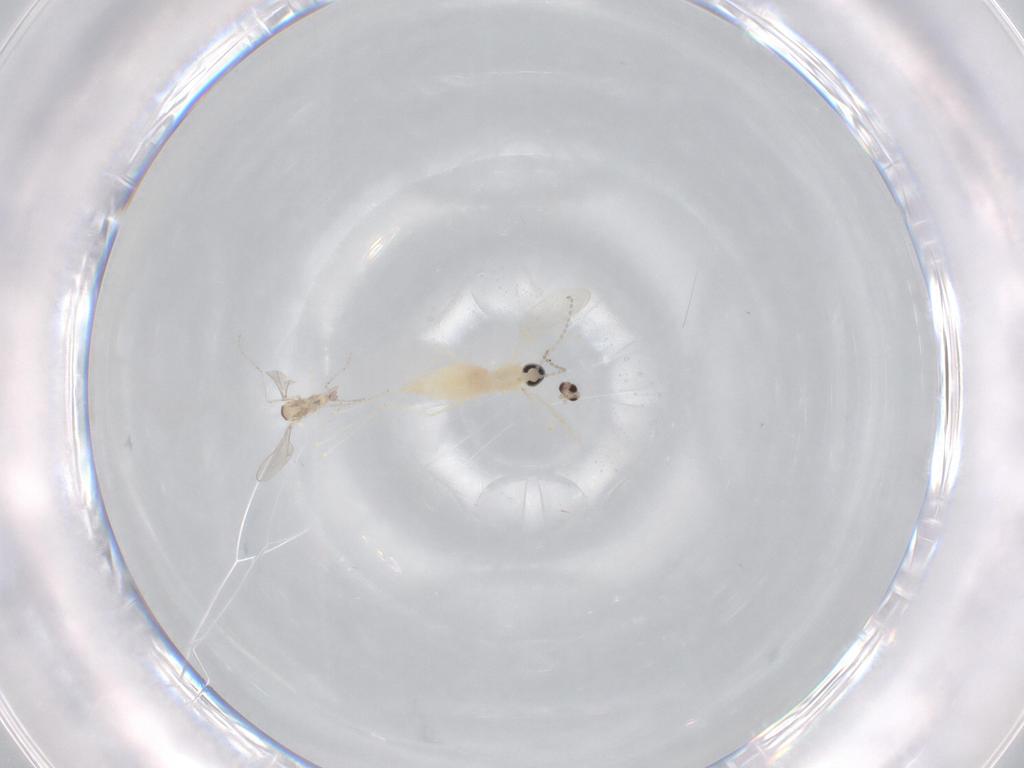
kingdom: Animalia
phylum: Arthropoda
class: Insecta
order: Diptera
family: Cecidomyiidae
